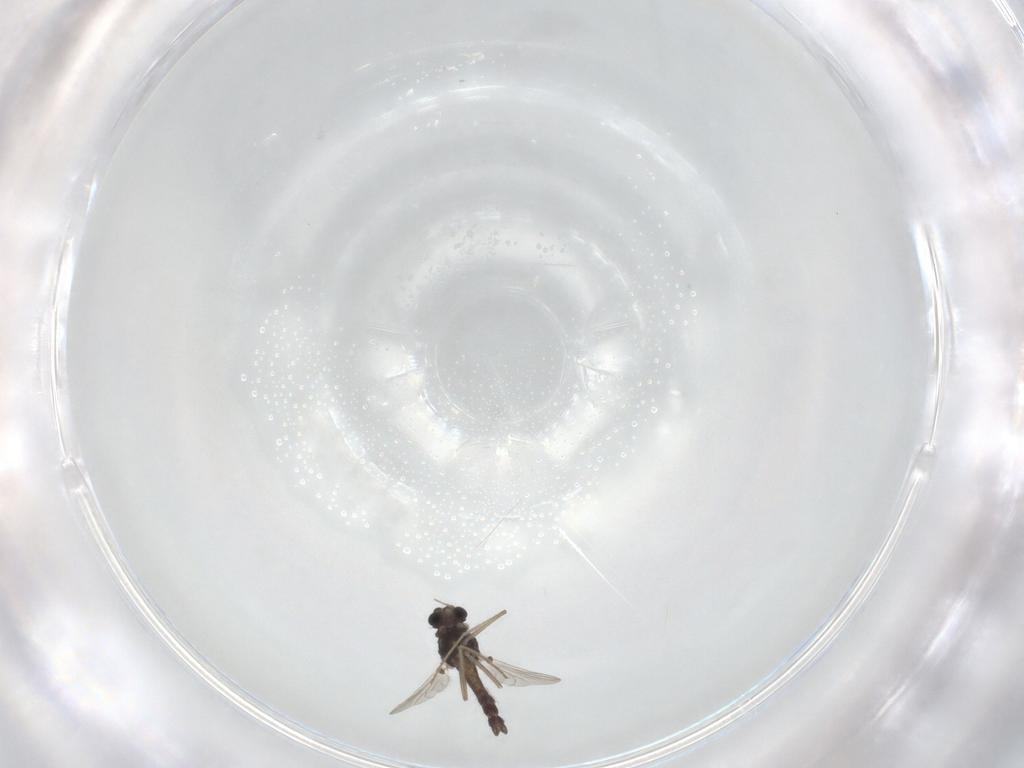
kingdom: Animalia
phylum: Arthropoda
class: Insecta
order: Diptera
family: Chironomidae
